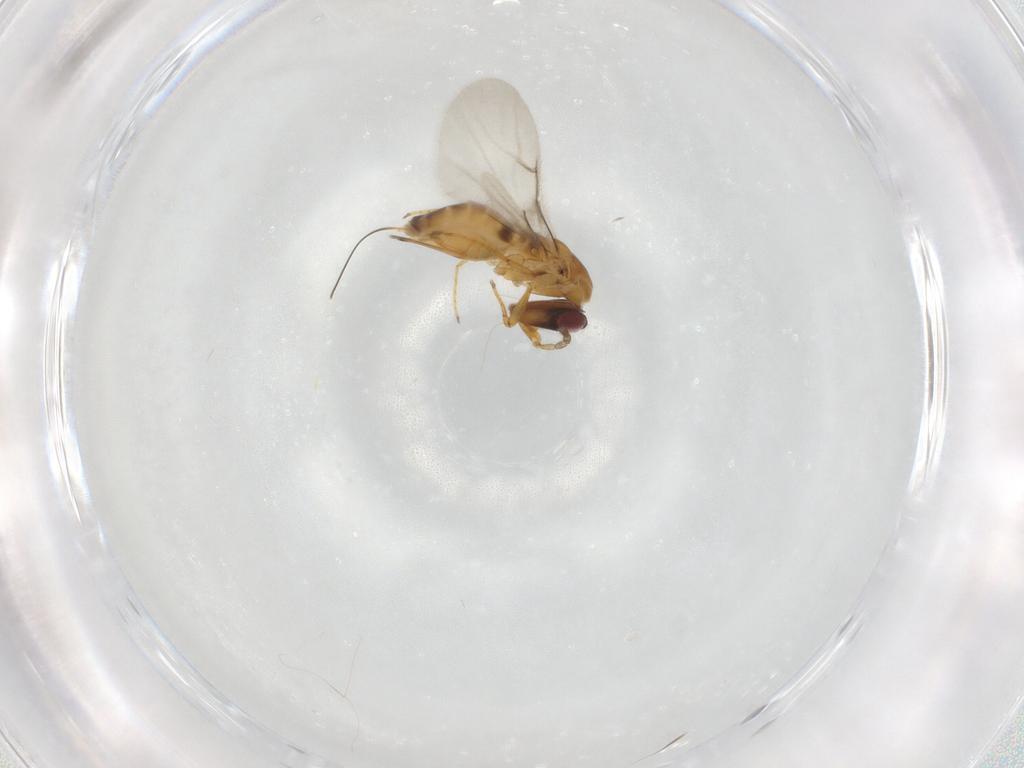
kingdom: Animalia
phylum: Arthropoda
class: Insecta
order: Hymenoptera
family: Agaonidae
